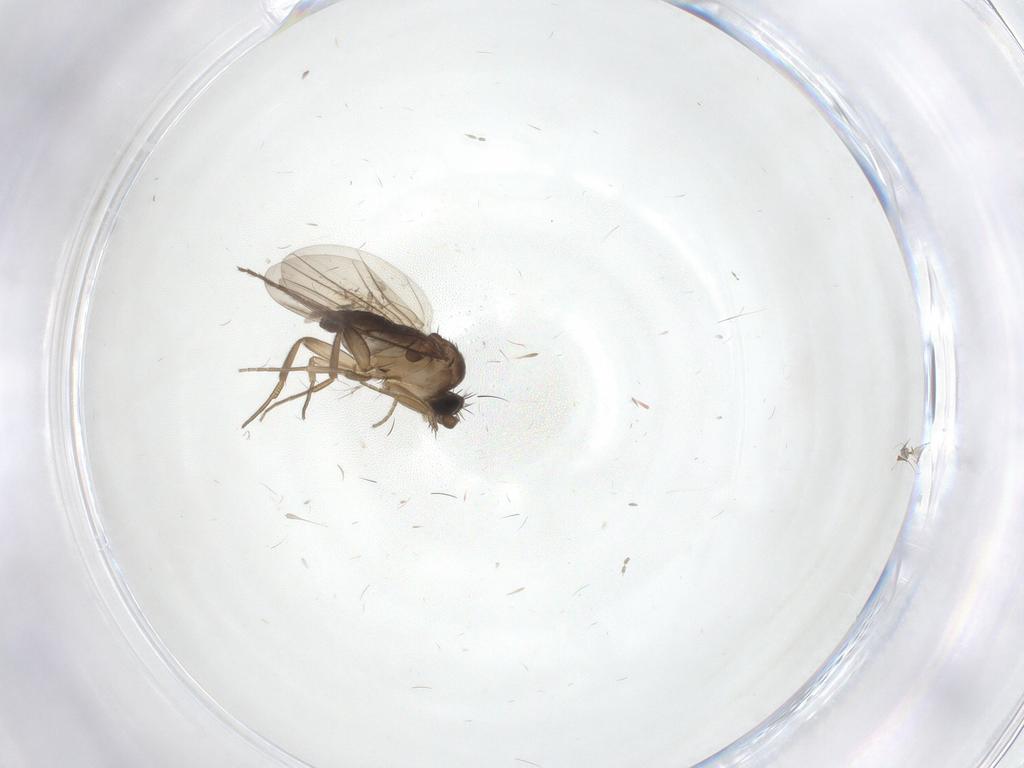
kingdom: Animalia
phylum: Arthropoda
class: Insecta
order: Diptera
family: Phoridae
